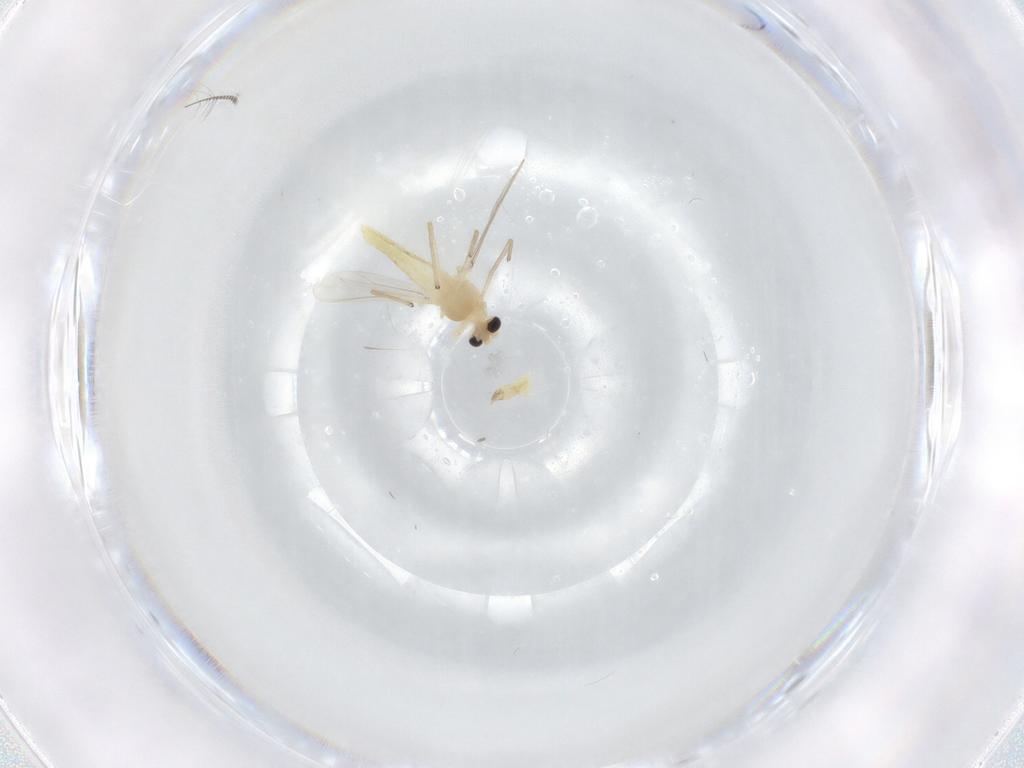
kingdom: Animalia
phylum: Arthropoda
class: Insecta
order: Diptera
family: Chironomidae
